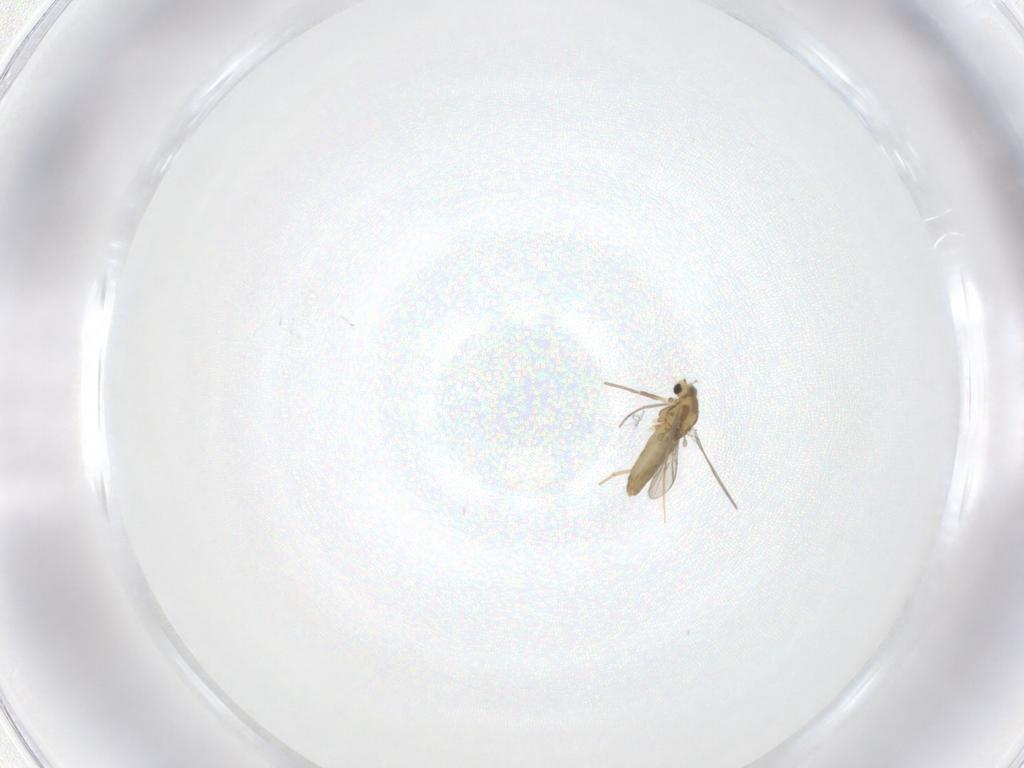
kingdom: Animalia
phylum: Arthropoda
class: Insecta
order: Diptera
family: Chironomidae
